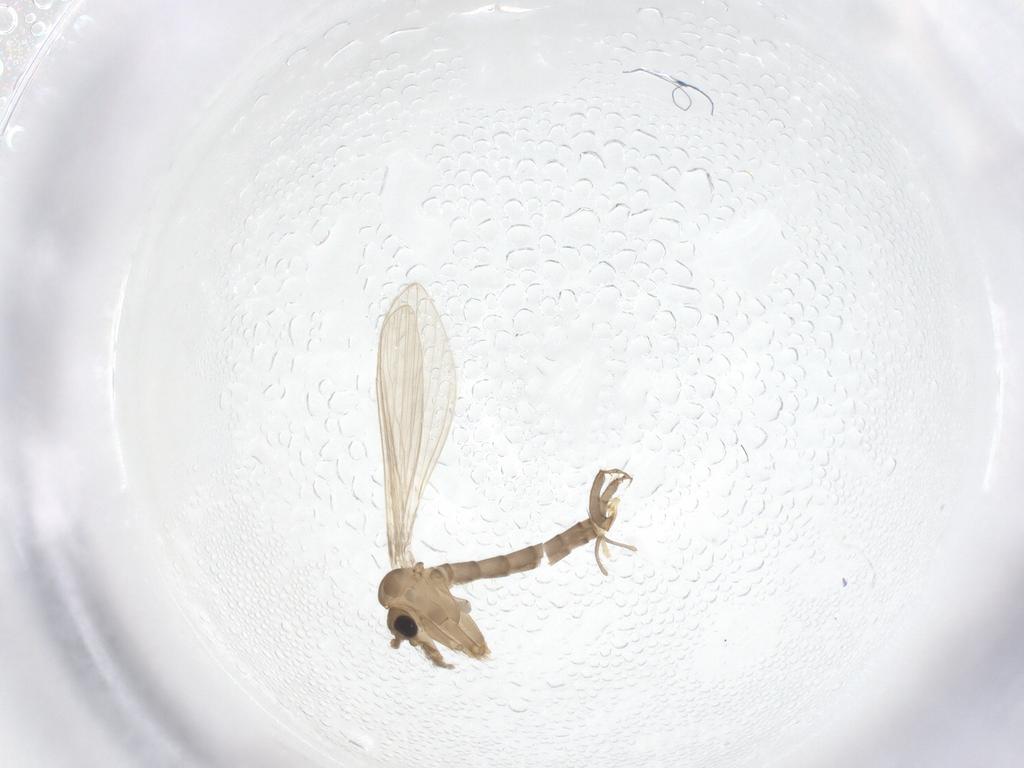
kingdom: Animalia
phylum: Arthropoda
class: Insecta
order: Diptera
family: Psychodidae
